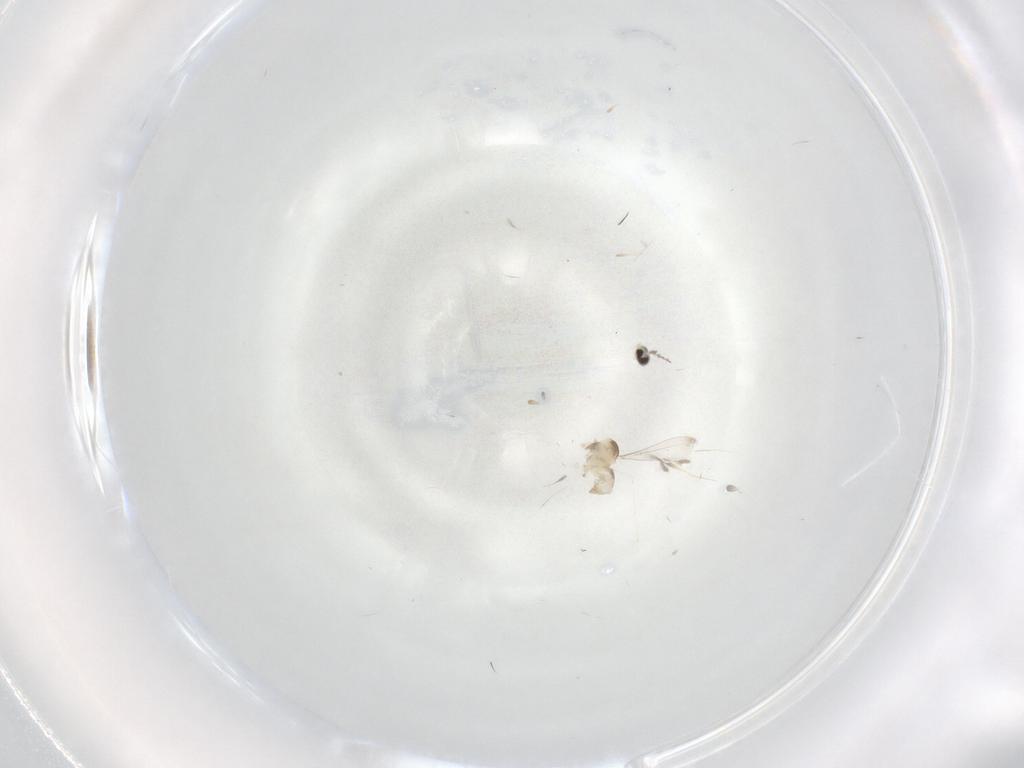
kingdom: Animalia
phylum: Arthropoda
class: Insecta
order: Diptera
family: Cecidomyiidae
